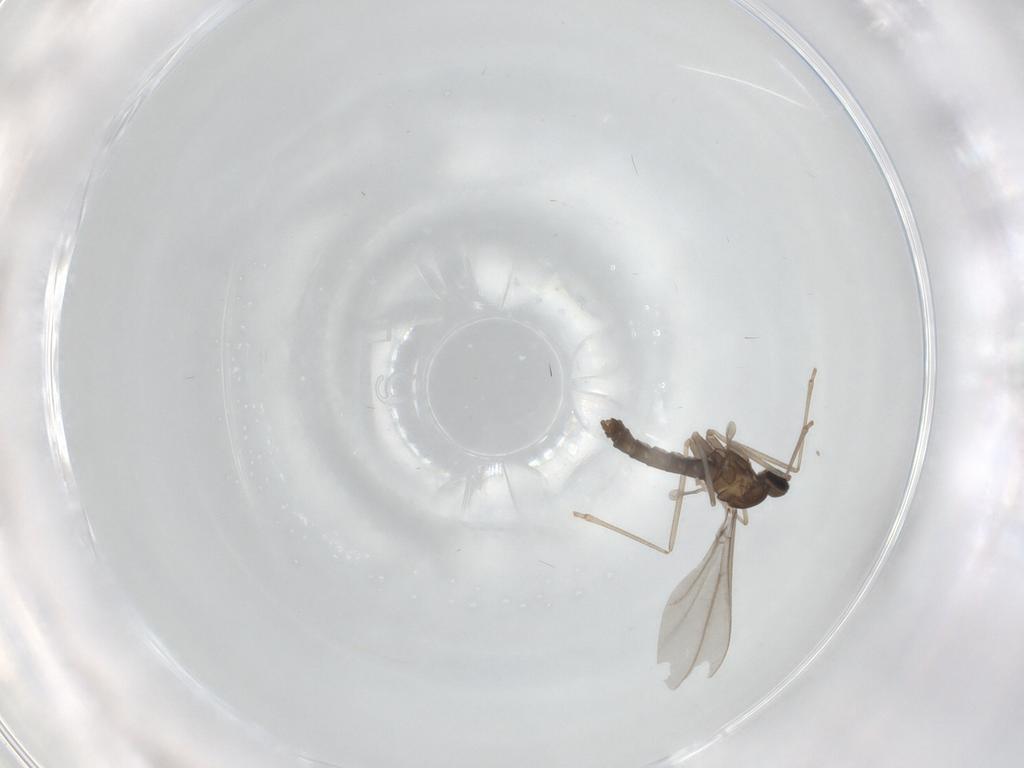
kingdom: Animalia
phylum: Arthropoda
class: Insecta
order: Diptera
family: Cecidomyiidae
